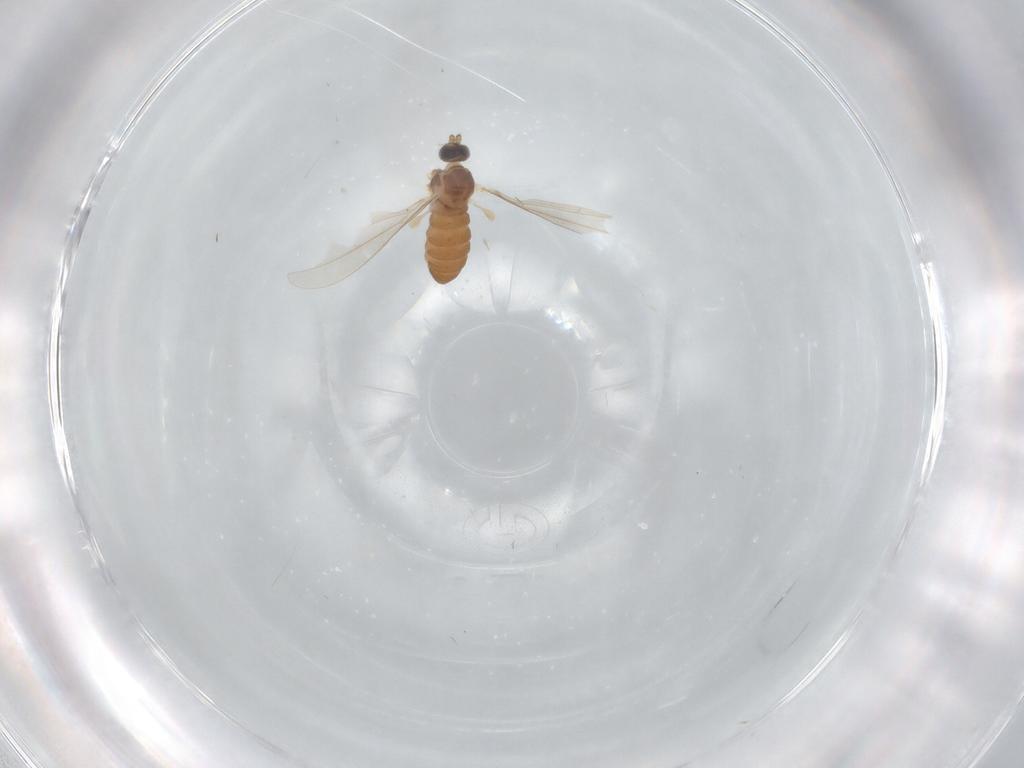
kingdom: Animalia
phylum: Arthropoda
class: Insecta
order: Diptera
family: Cecidomyiidae
